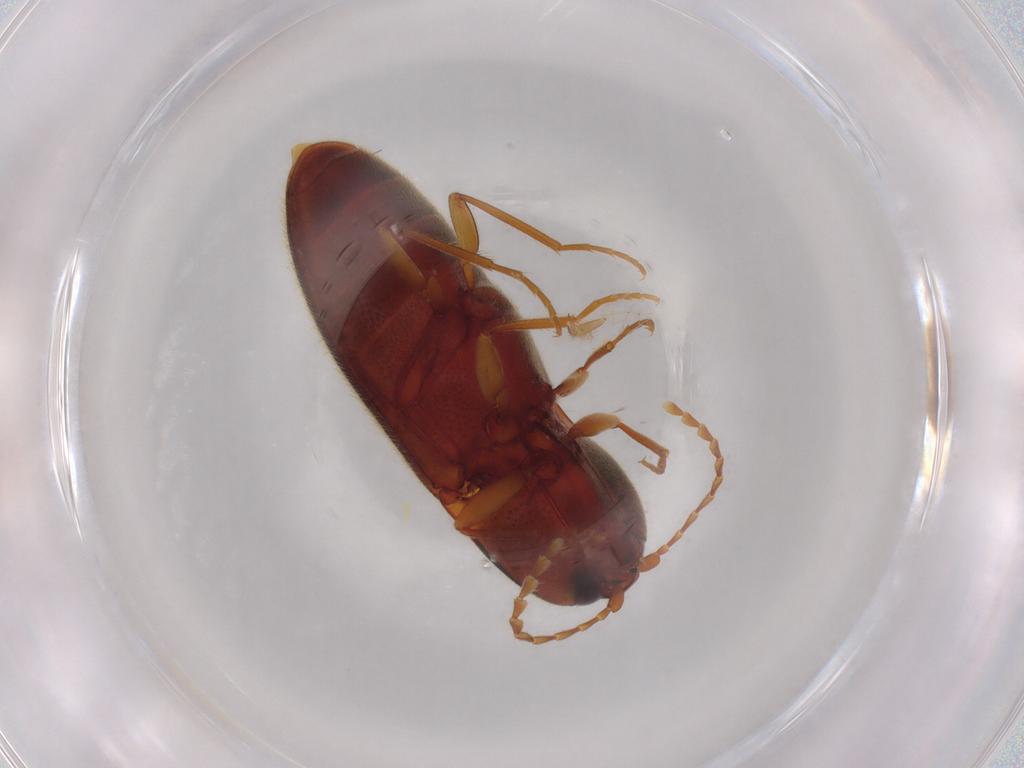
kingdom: Animalia
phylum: Arthropoda
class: Insecta
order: Coleoptera
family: Elateridae
